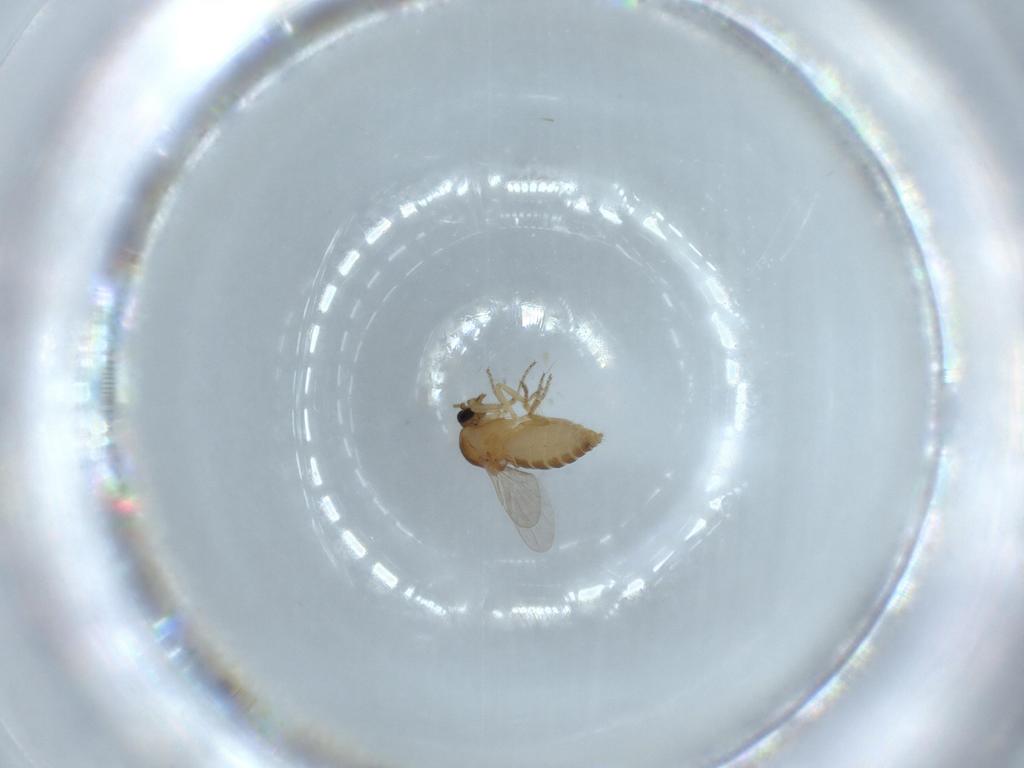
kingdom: Animalia
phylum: Arthropoda
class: Insecta
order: Diptera
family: Ceratopogonidae
